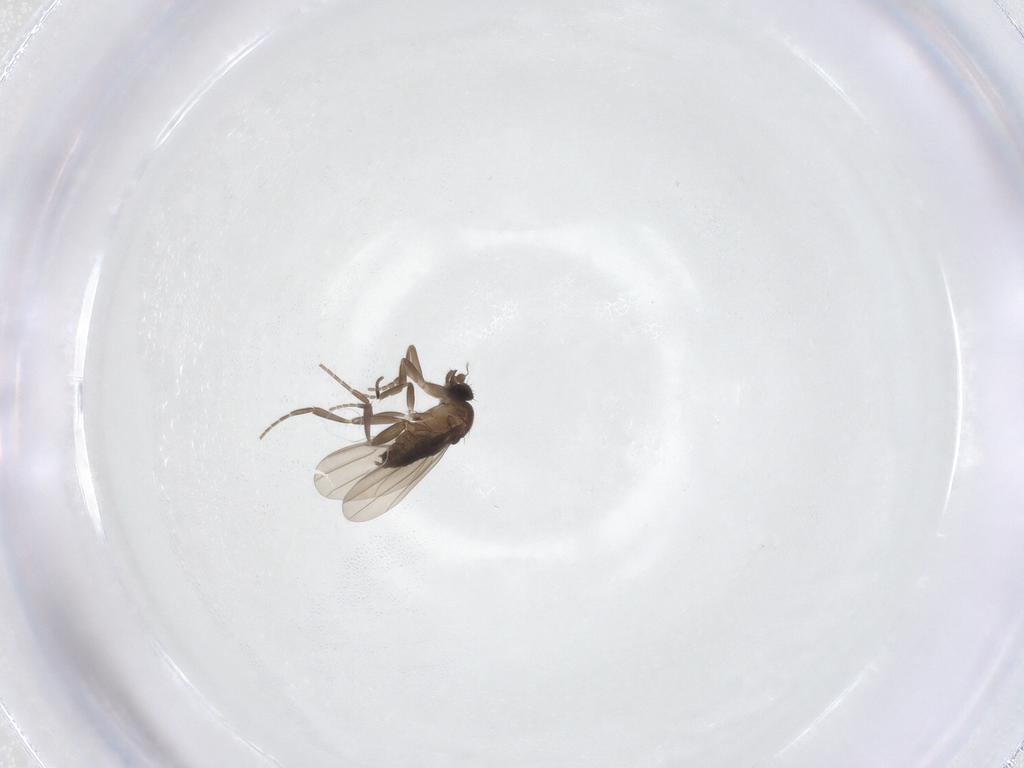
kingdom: Animalia
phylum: Arthropoda
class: Insecta
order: Diptera
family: Phoridae
